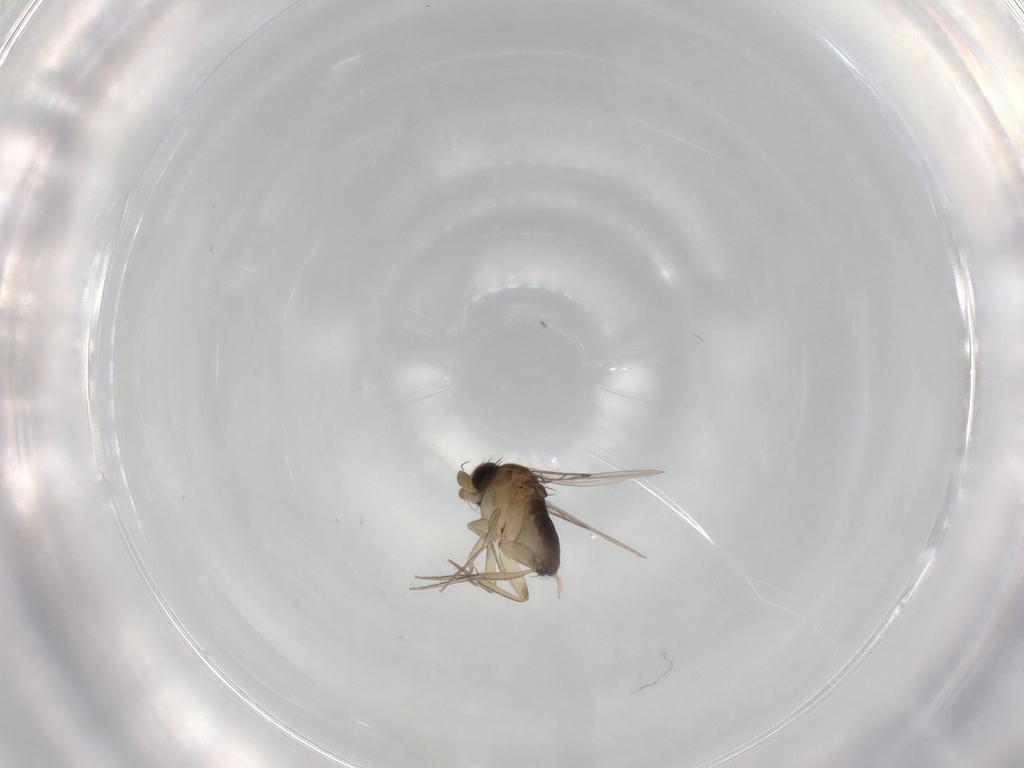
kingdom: Animalia
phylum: Arthropoda
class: Insecta
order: Diptera
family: Phoridae
